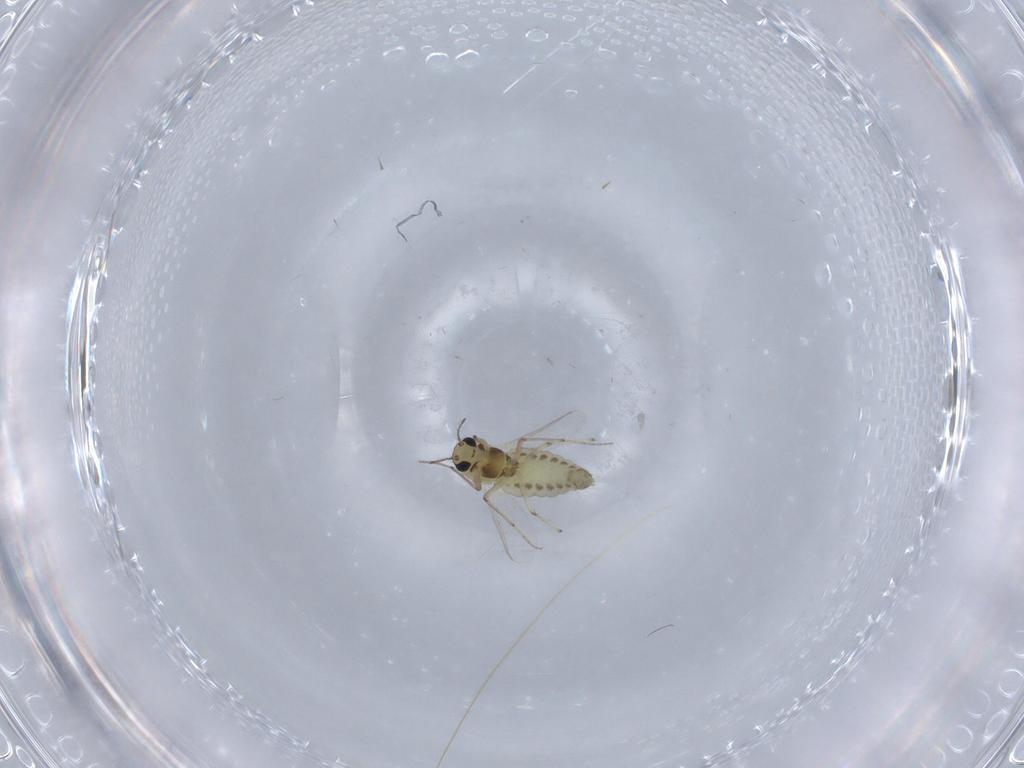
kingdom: Animalia
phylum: Arthropoda
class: Insecta
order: Diptera
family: Chironomidae
